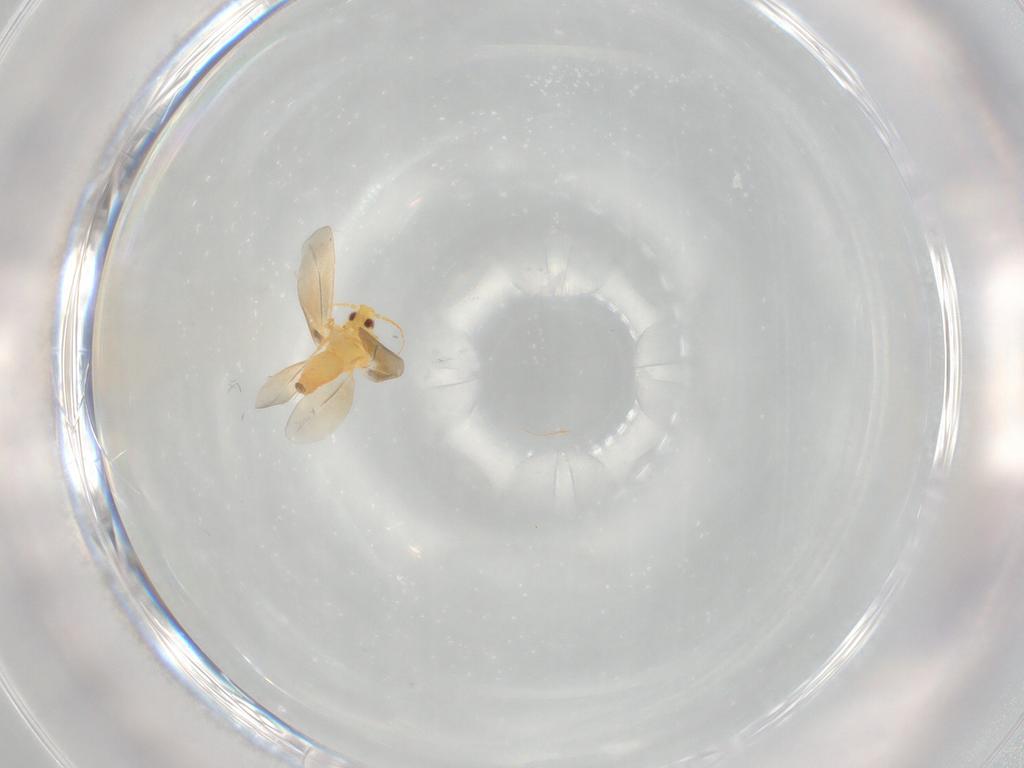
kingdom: Animalia
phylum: Arthropoda
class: Insecta
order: Hemiptera
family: Aleyrodidae
